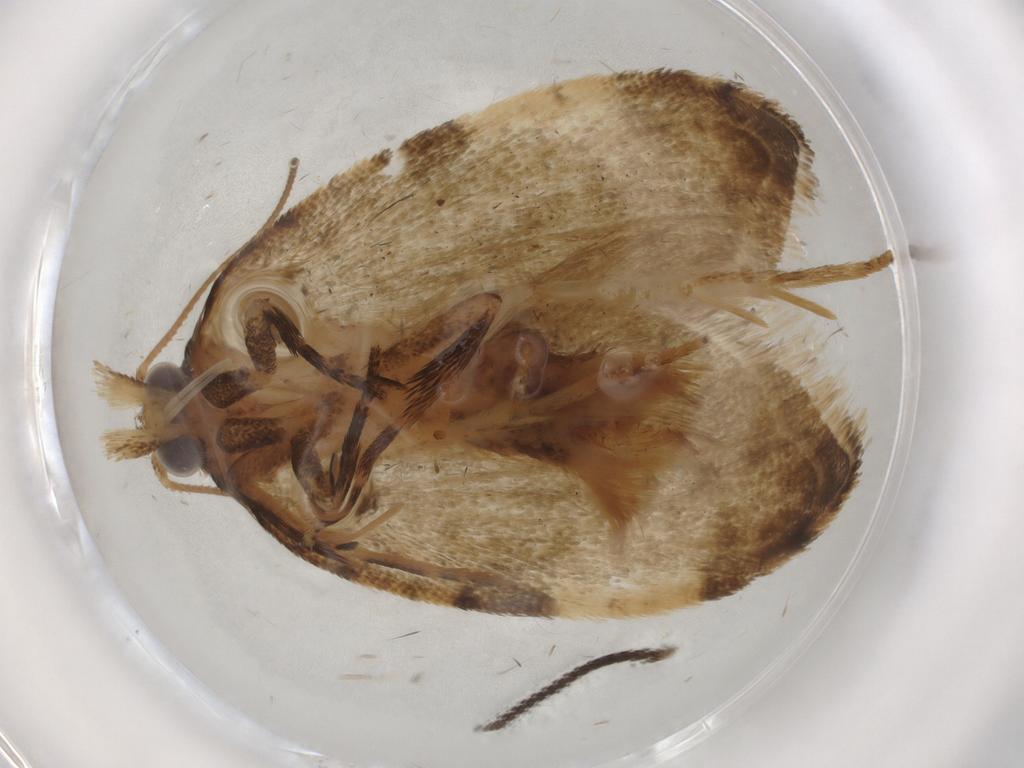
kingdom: Animalia
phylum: Arthropoda
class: Insecta
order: Lepidoptera
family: Tortricidae
